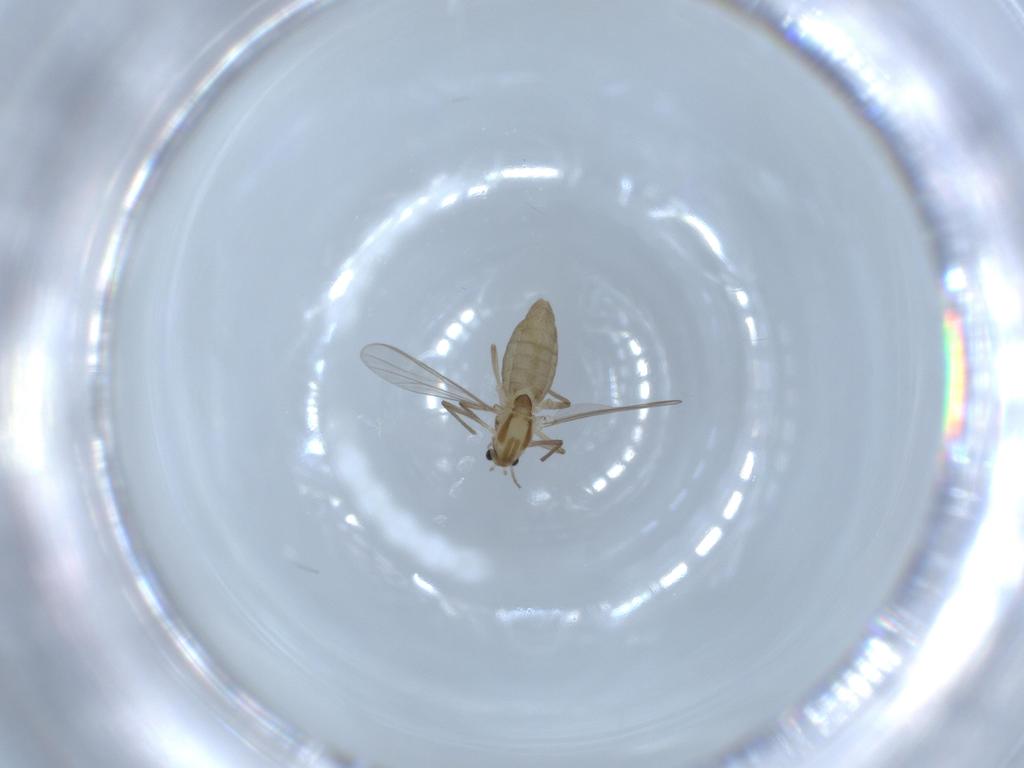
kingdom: Animalia
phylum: Arthropoda
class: Insecta
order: Diptera
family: Chironomidae
